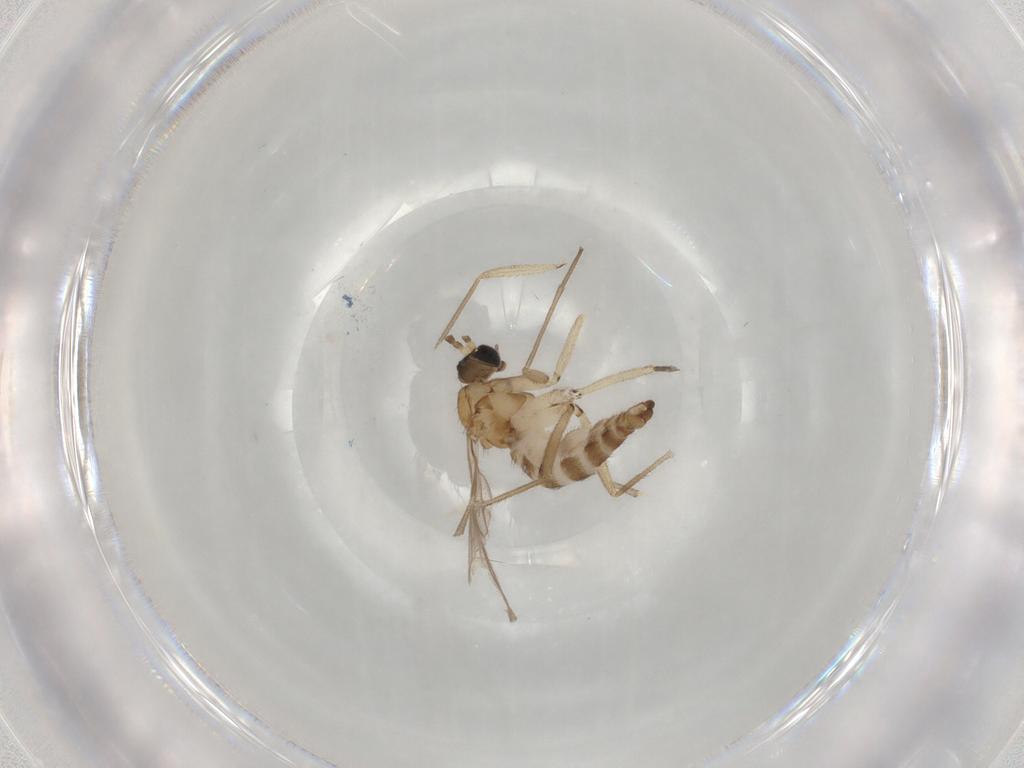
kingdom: Animalia
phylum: Arthropoda
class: Insecta
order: Diptera
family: Sciaridae
